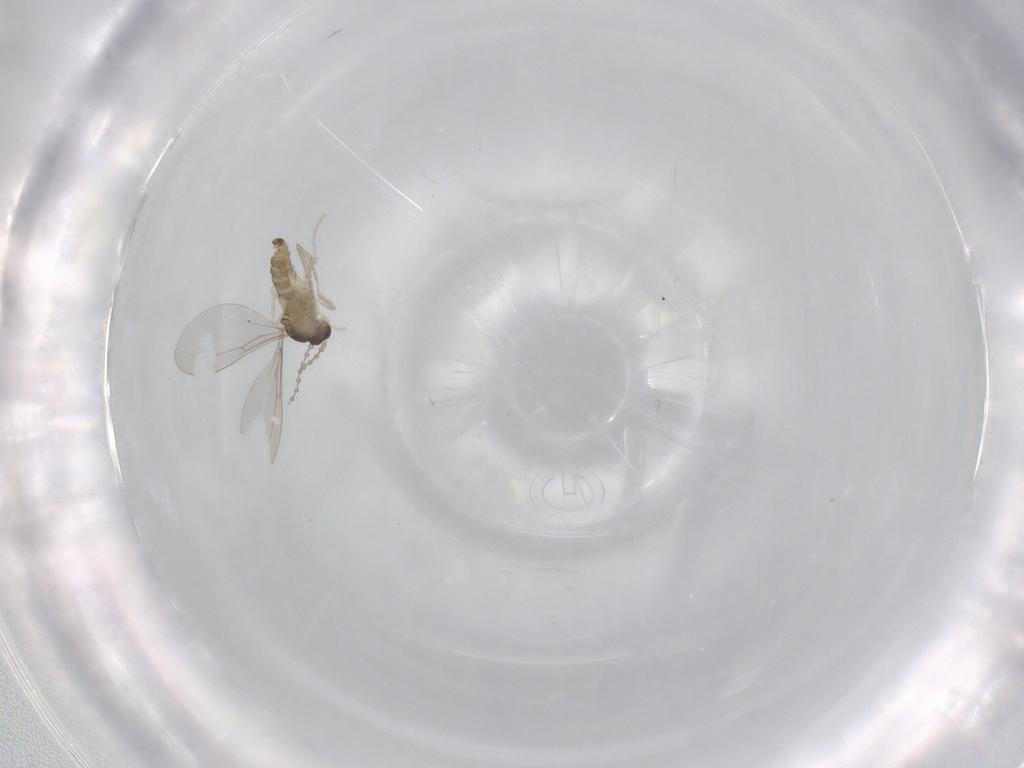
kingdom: Animalia
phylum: Arthropoda
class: Insecta
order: Diptera
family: Cecidomyiidae
